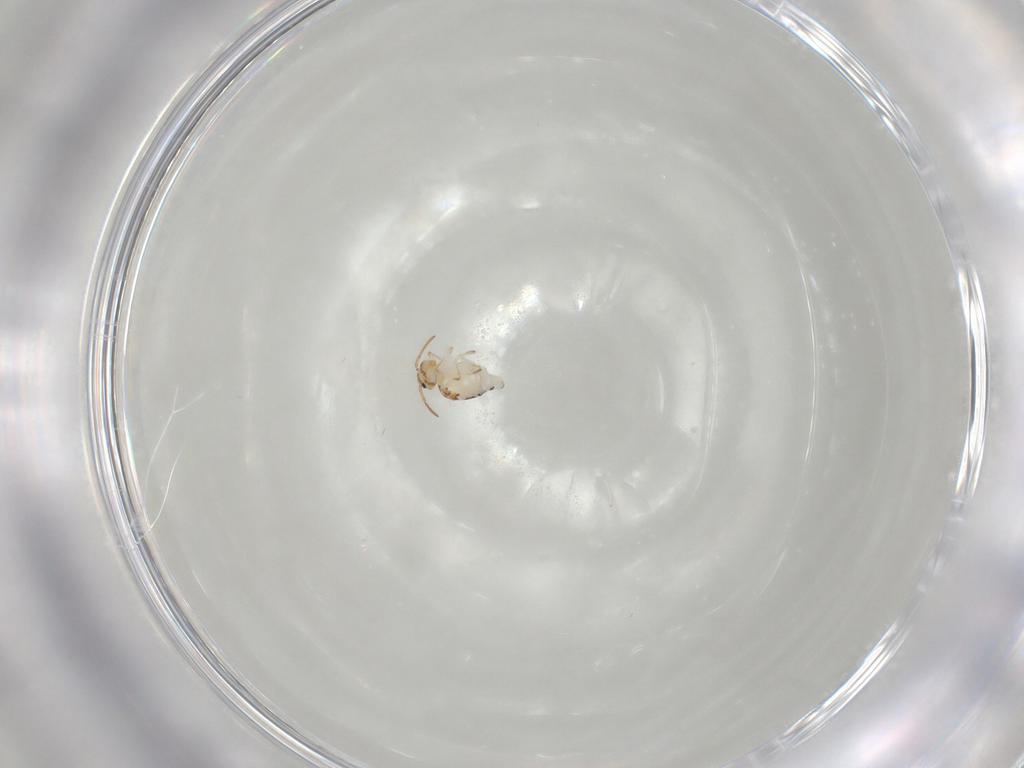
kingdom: Animalia
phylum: Arthropoda
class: Collembola
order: Symphypleona
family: Bourletiellidae
